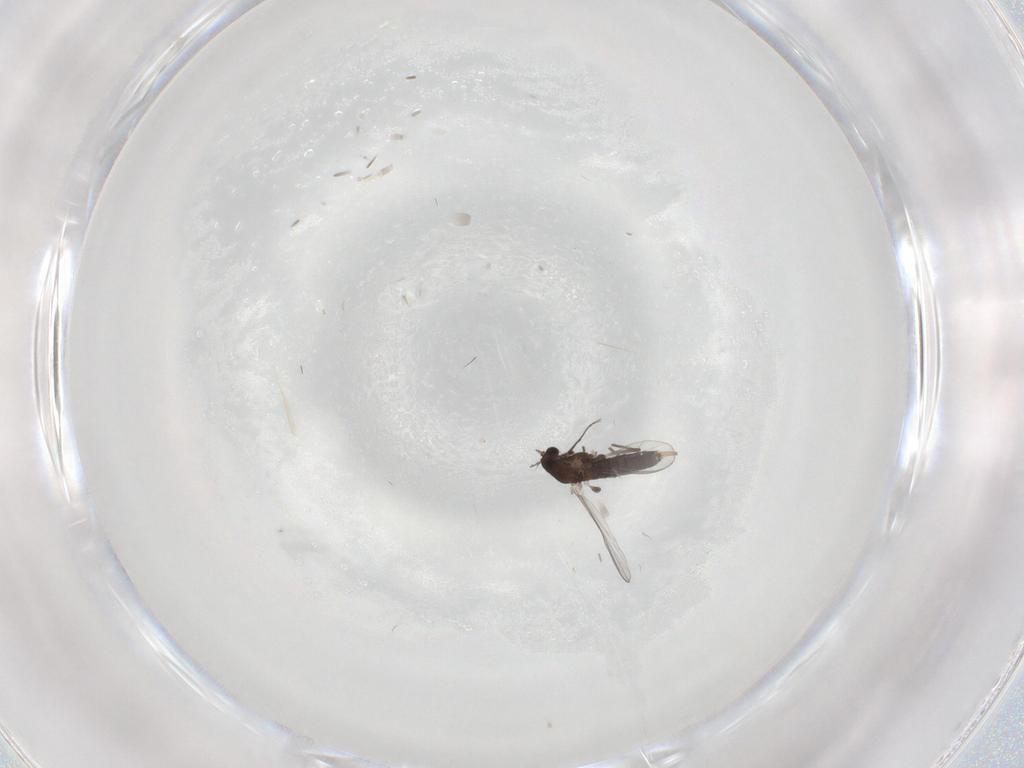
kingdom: Animalia
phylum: Arthropoda
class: Insecta
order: Diptera
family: Chironomidae
